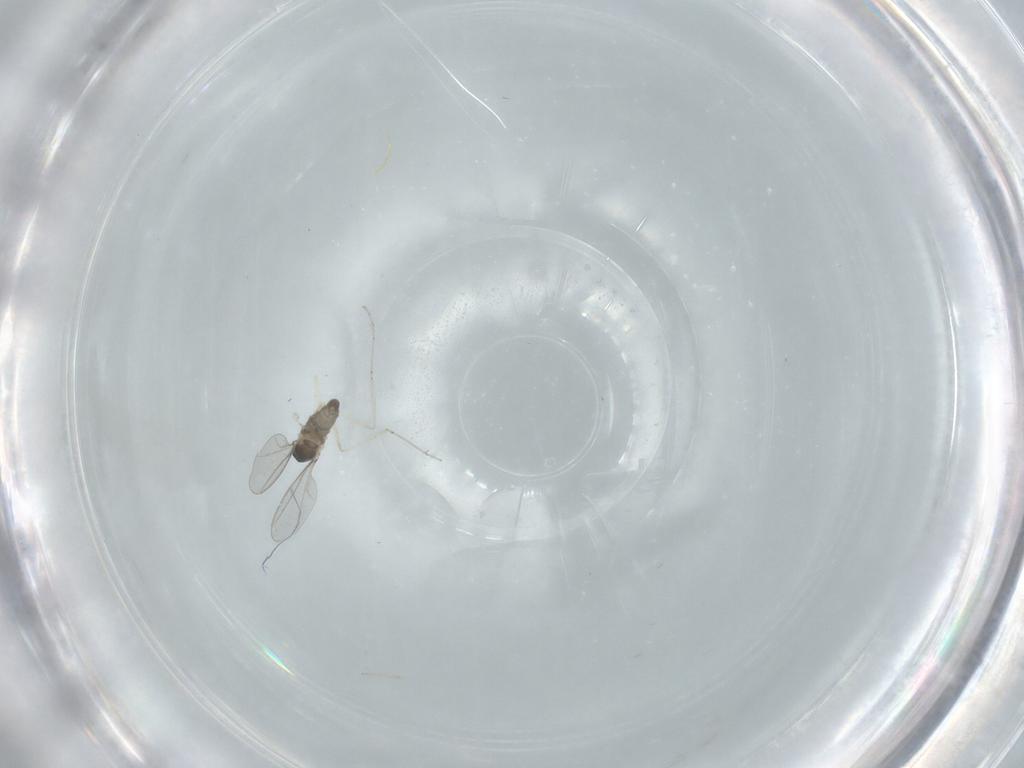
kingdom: Animalia
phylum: Arthropoda
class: Insecta
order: Diptera
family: Cecidomyiidae
